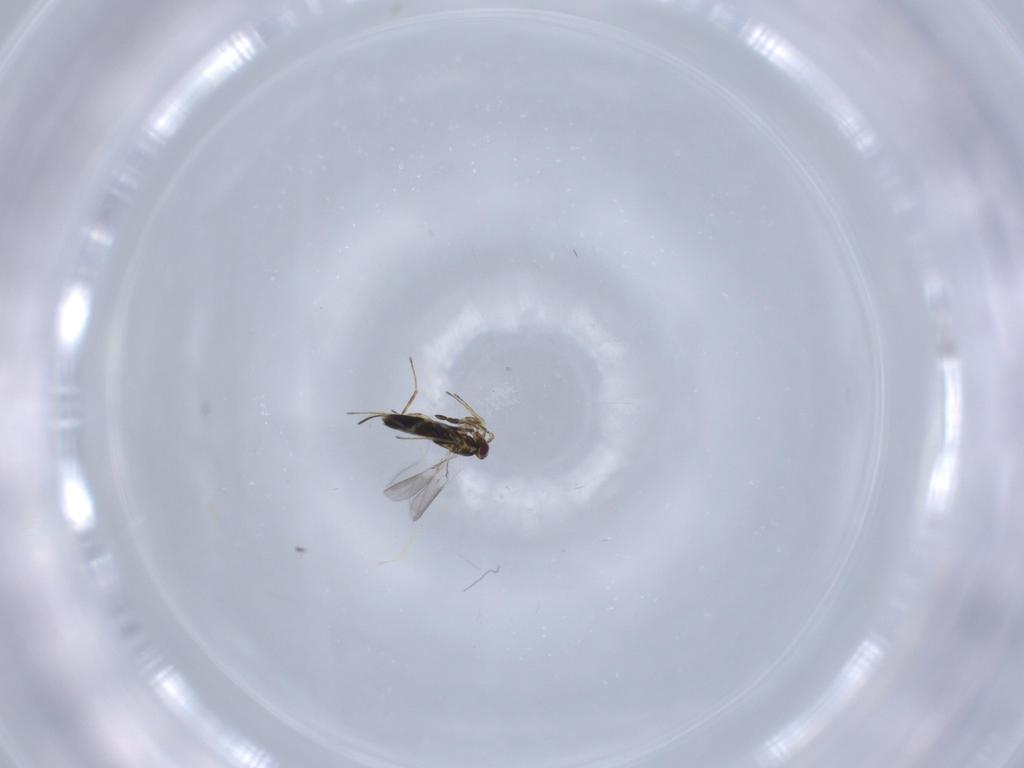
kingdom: Animalia
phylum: Arthropoda
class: Insecta
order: Hymenoptera
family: Mymaridae
